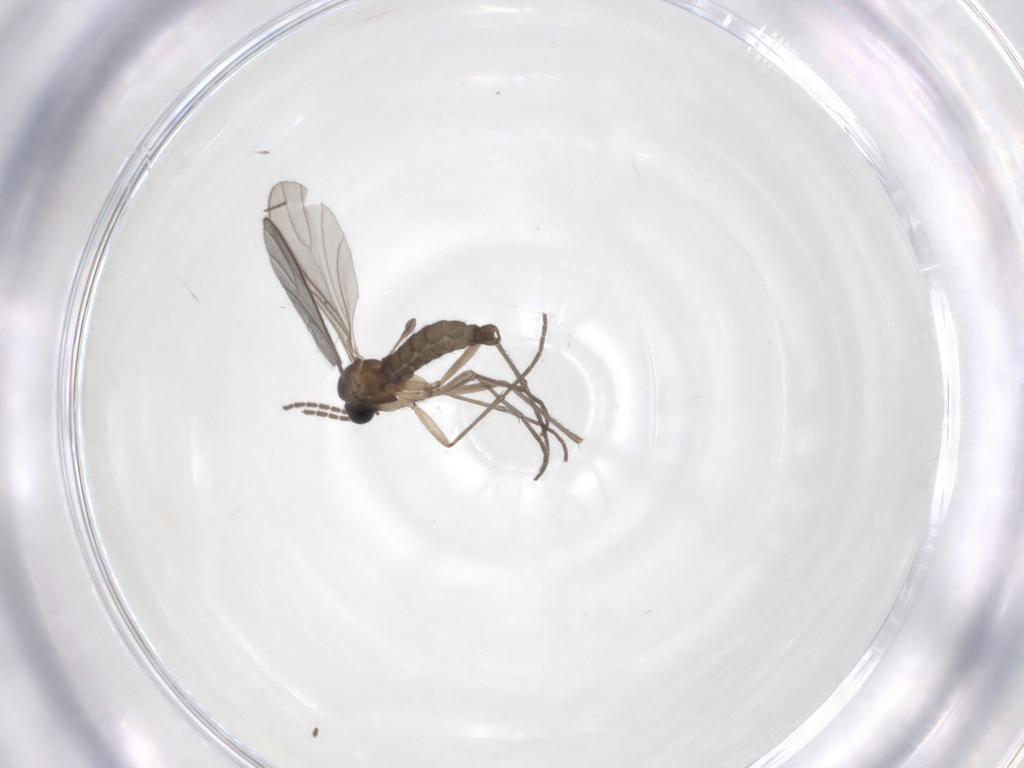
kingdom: Animalia
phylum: Arthropoda
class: Insecta
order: Diptera
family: Sciaridae
